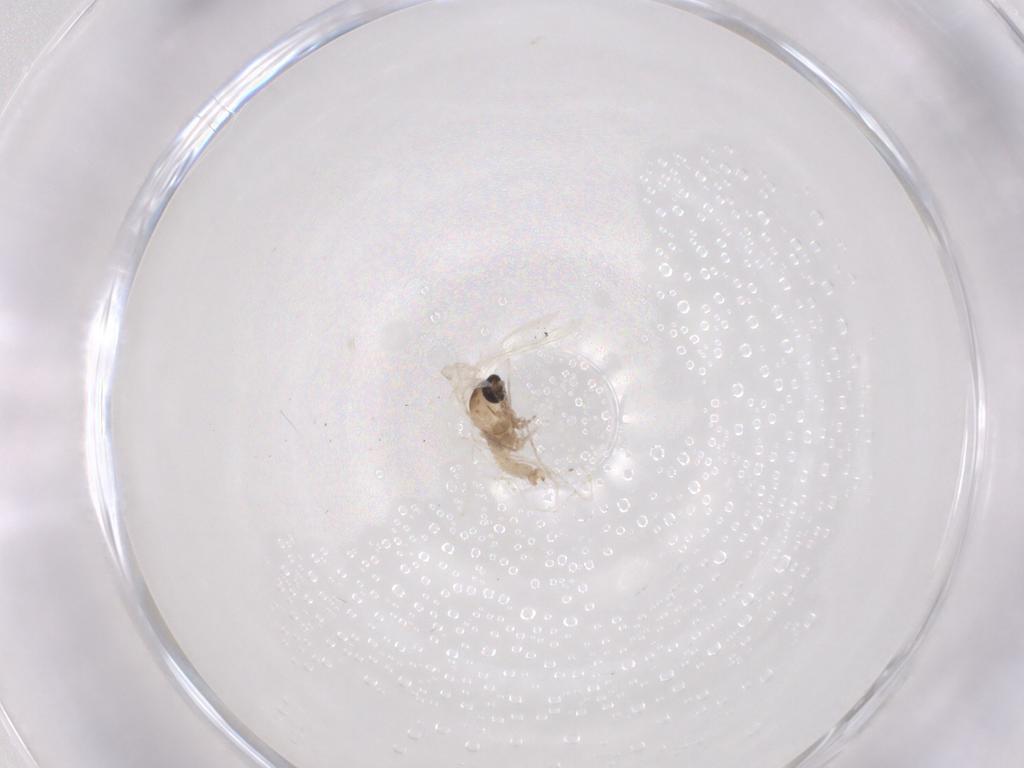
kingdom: Animalia
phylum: Arthropoda
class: Insecta
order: Diptera
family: Cecidomyiidae
